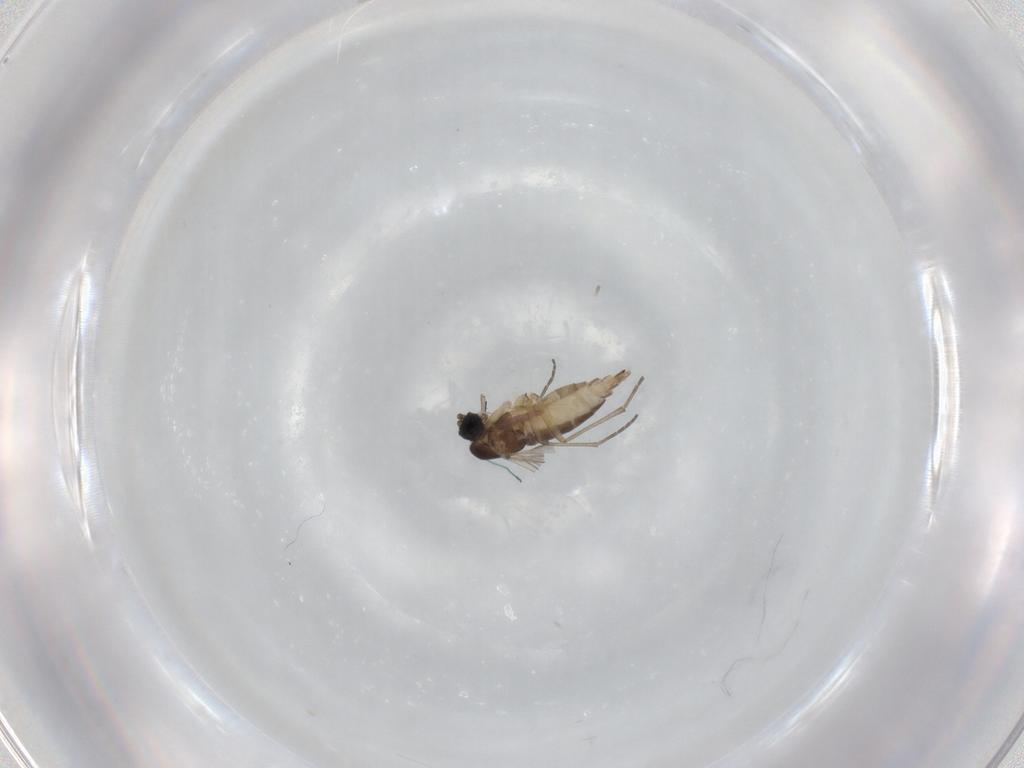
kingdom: Animalia
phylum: Arthropoda
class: Insecta
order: Diptera
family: Sciaridae
